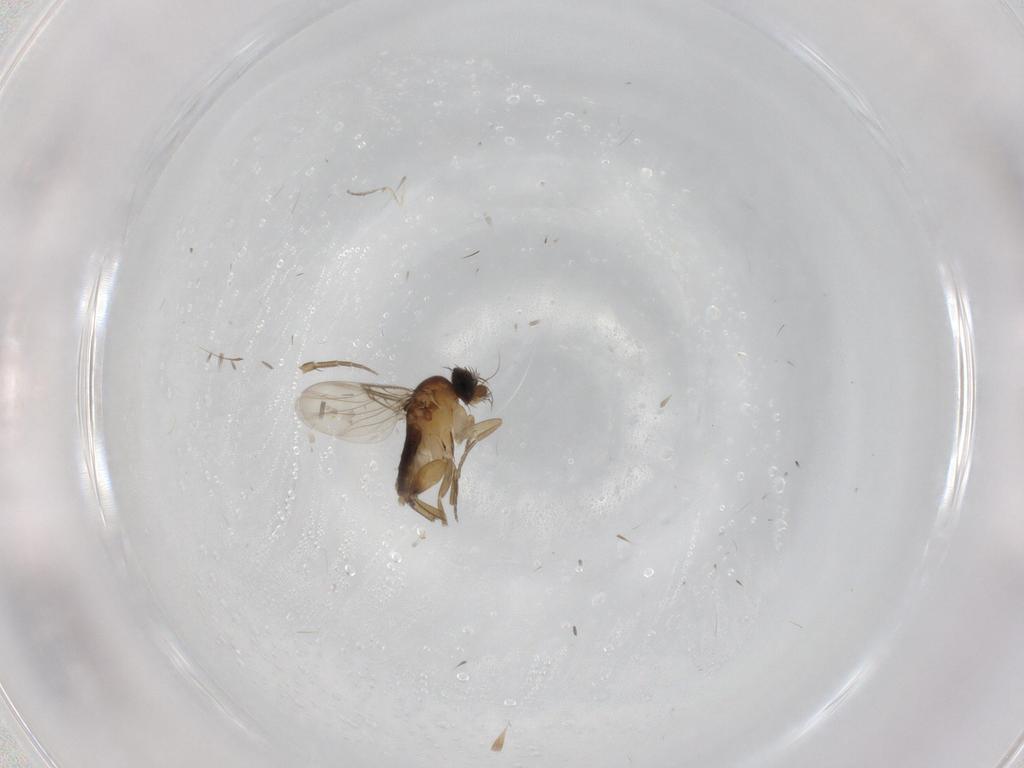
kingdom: Animalia
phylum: Arthropoda
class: Insecta
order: Diptera
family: Phoridae
